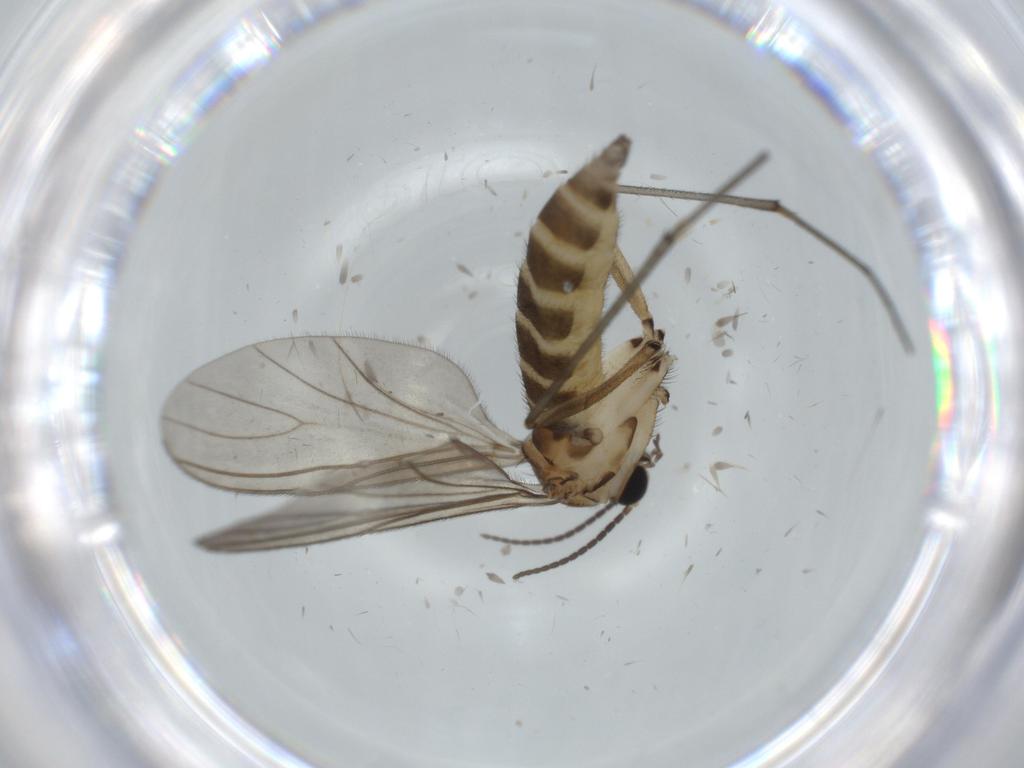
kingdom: Animalia
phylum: Arthropoda
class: Insecta
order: Diptera
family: Sciaridae
